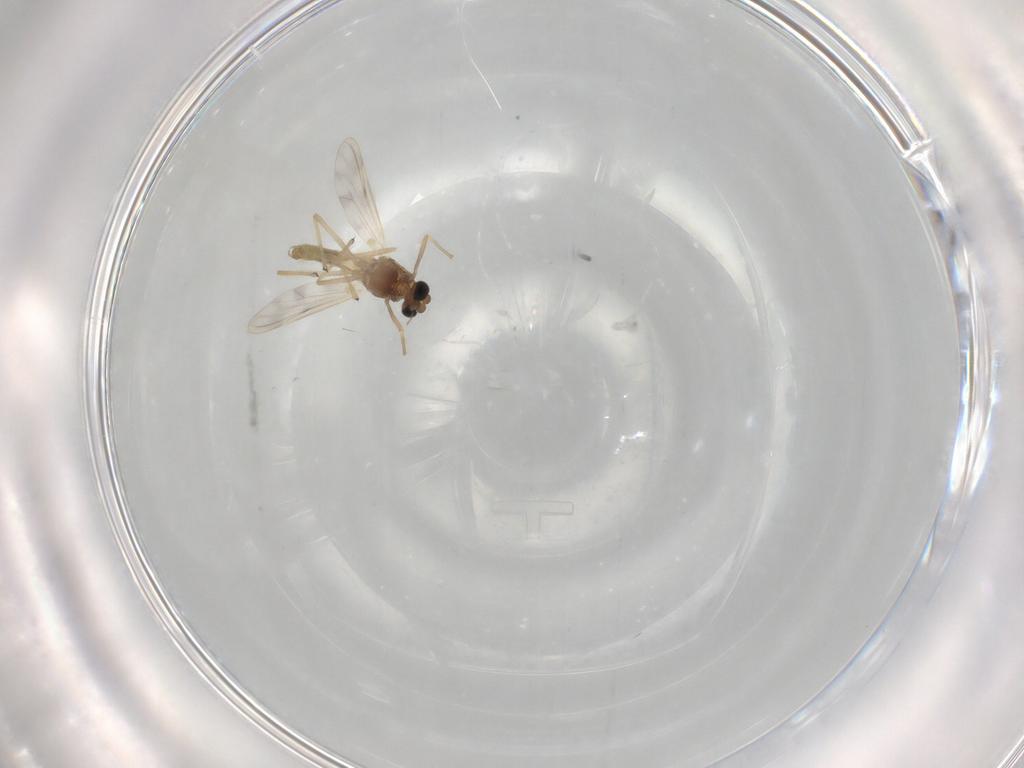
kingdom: Animalia
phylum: Arthropoda
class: Insecta
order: Diptera
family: Chironomidae
